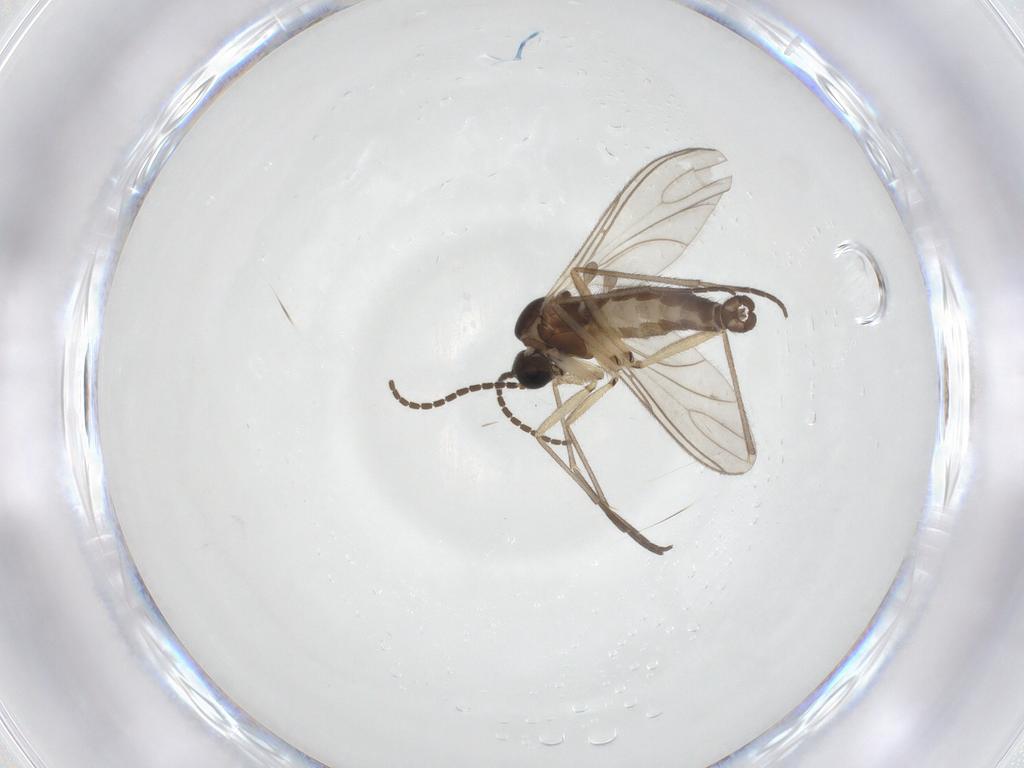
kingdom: Animalia
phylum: Arthropoda
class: Insecta
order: Diptera
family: Sciaridae
